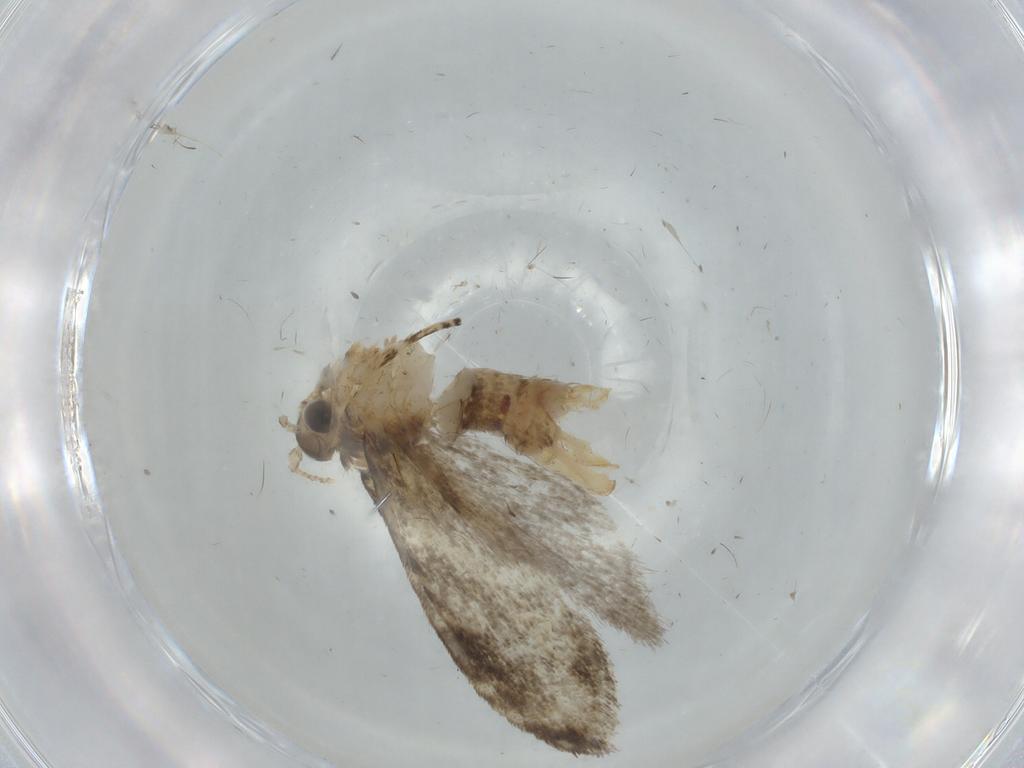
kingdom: Animalia
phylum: Arthropoda
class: Insecta
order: Lepidoptera
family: Tineidae
